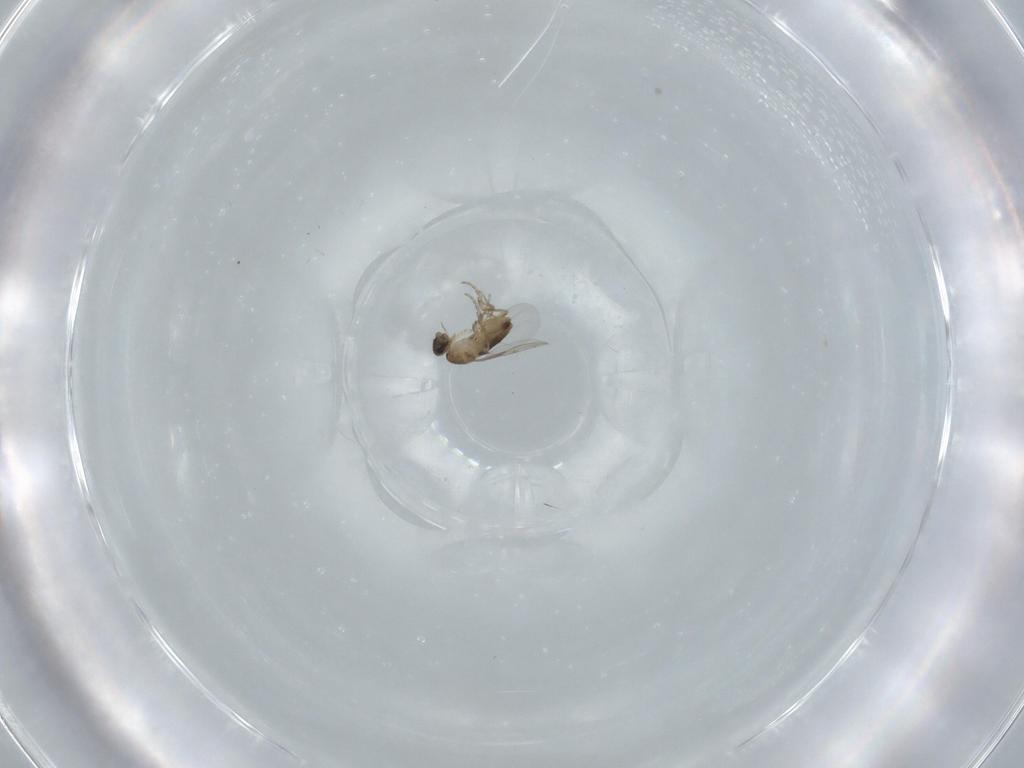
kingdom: Animalia
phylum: Arthropoda
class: Insecta
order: Diptera
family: Phoridae
